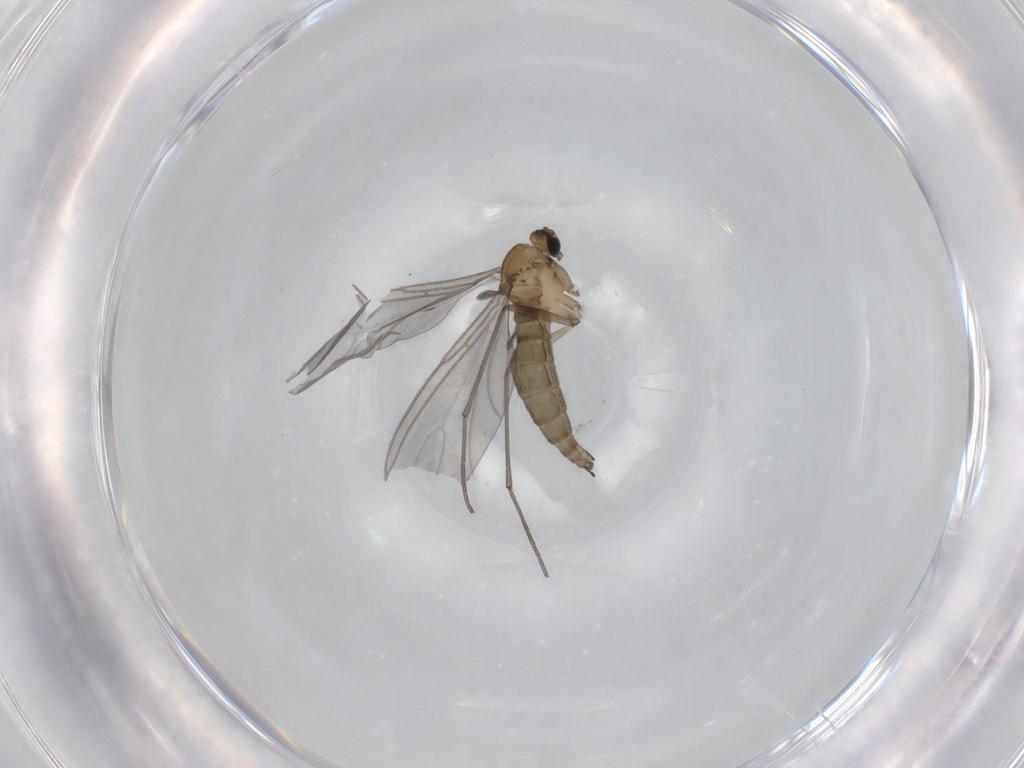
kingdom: Animalia
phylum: Arthropoda
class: Insecta
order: Diptera
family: Sciaridae
